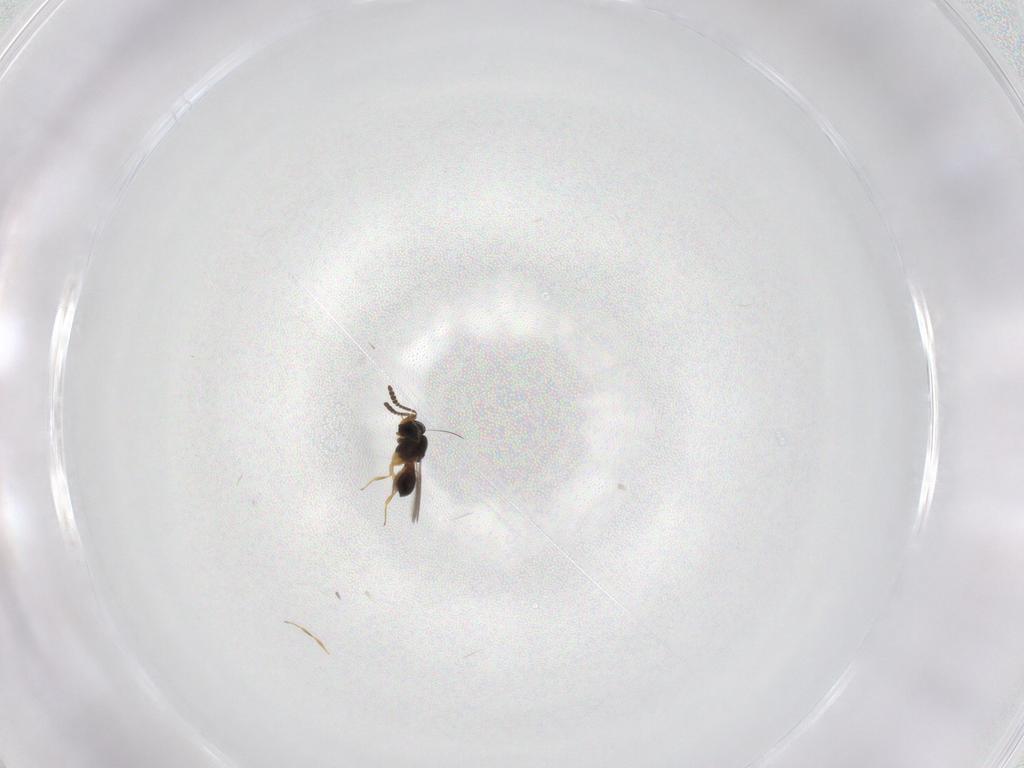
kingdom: Animalia
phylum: Arthropoda
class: Insecta
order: Hymenoptera
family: Scelionidae
